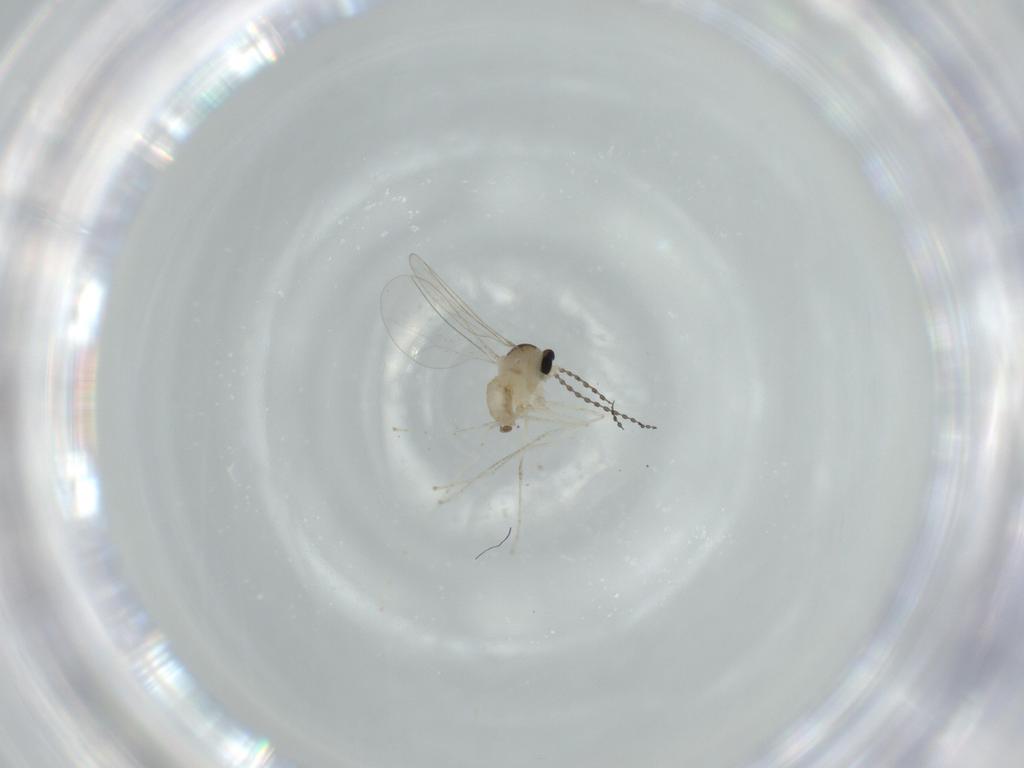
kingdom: Animalia
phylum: Arthropoda
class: Insecta
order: Diptera
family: Cecidomyiidae
